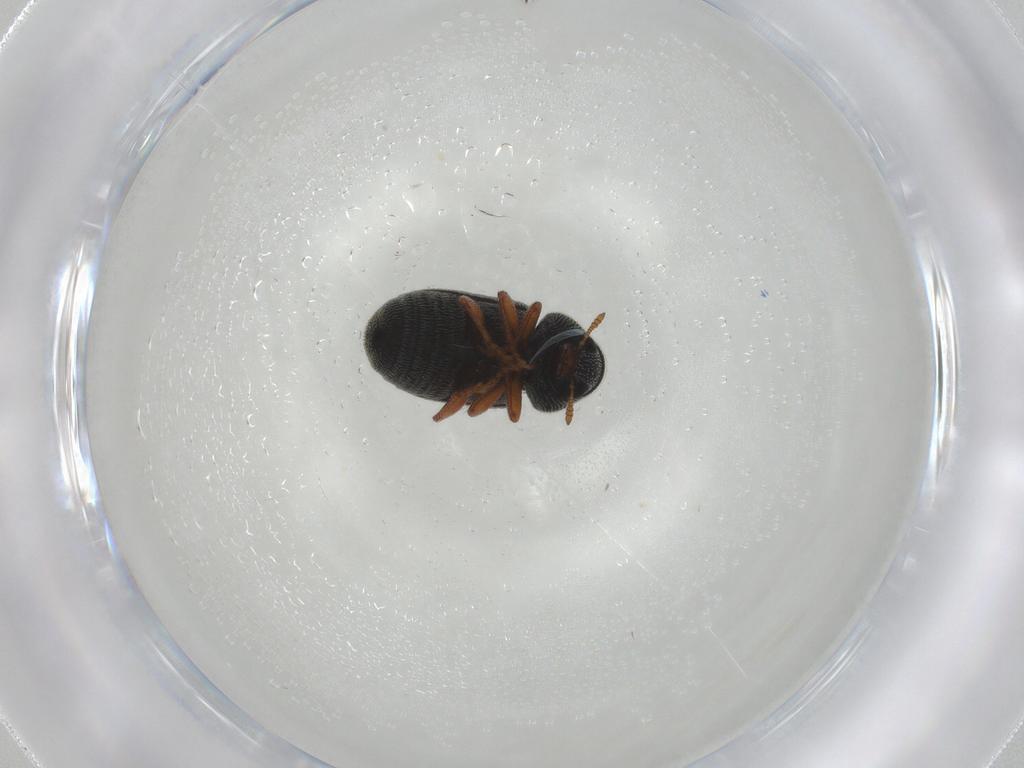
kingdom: Animalia
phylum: Arthropoda
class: Insecta
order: Coleoptera
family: Anthribidae
